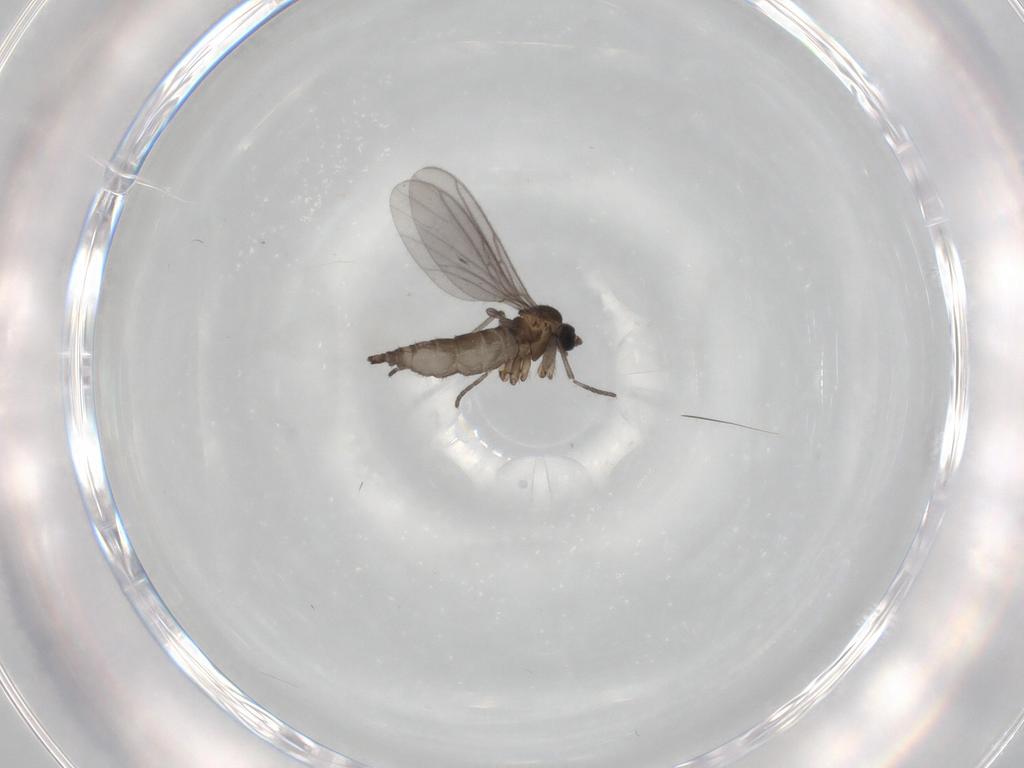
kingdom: Animalia
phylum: Arthropoda
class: Insecta
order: Diptera
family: Sciaridae
